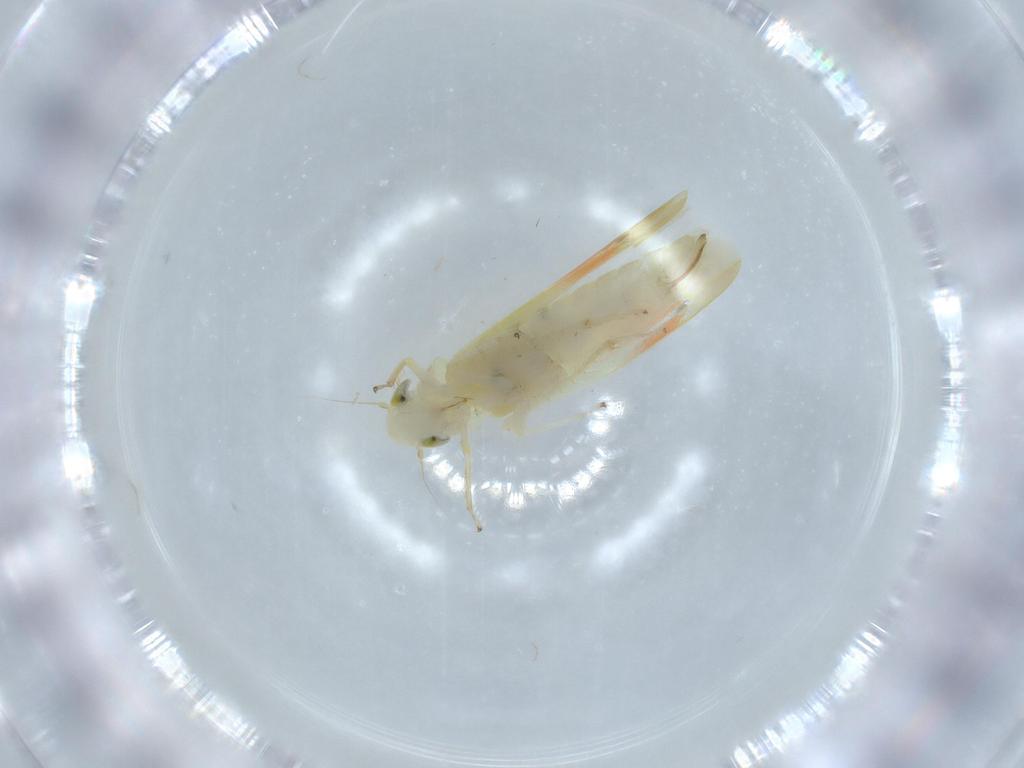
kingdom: Animalia
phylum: Arthropoda
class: Insecta
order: Hemiptera
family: Cicadellidae
